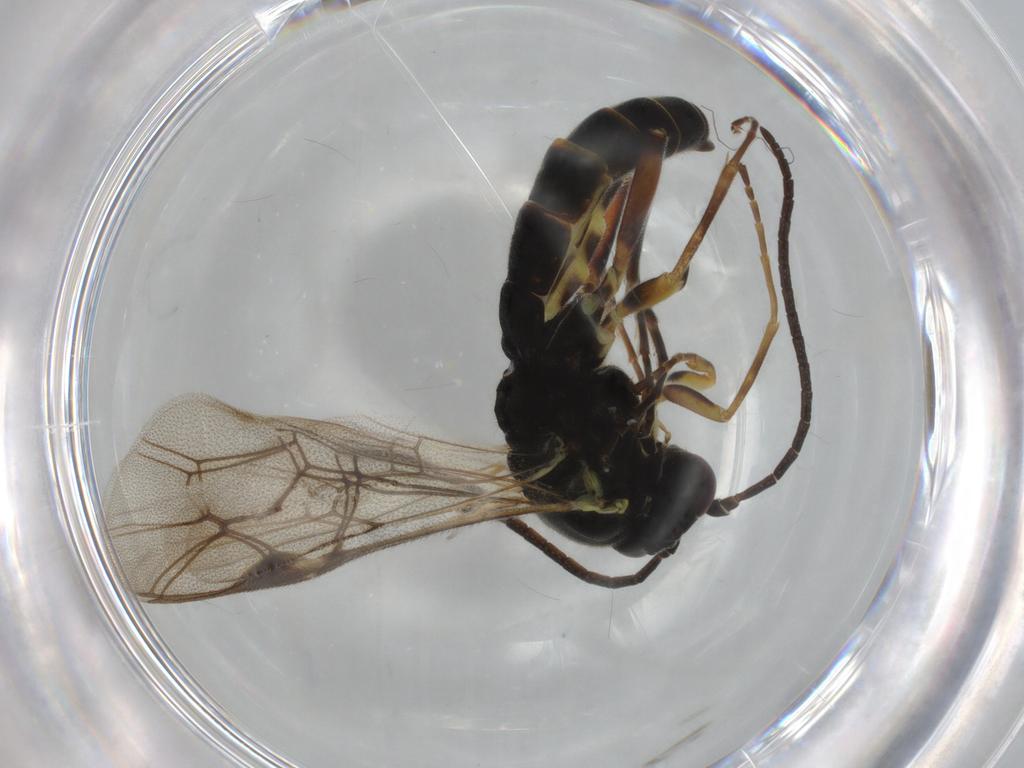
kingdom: Animalia
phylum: Arthropoda
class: Insecta
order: Hymenoptera
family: Ichneumonidae
